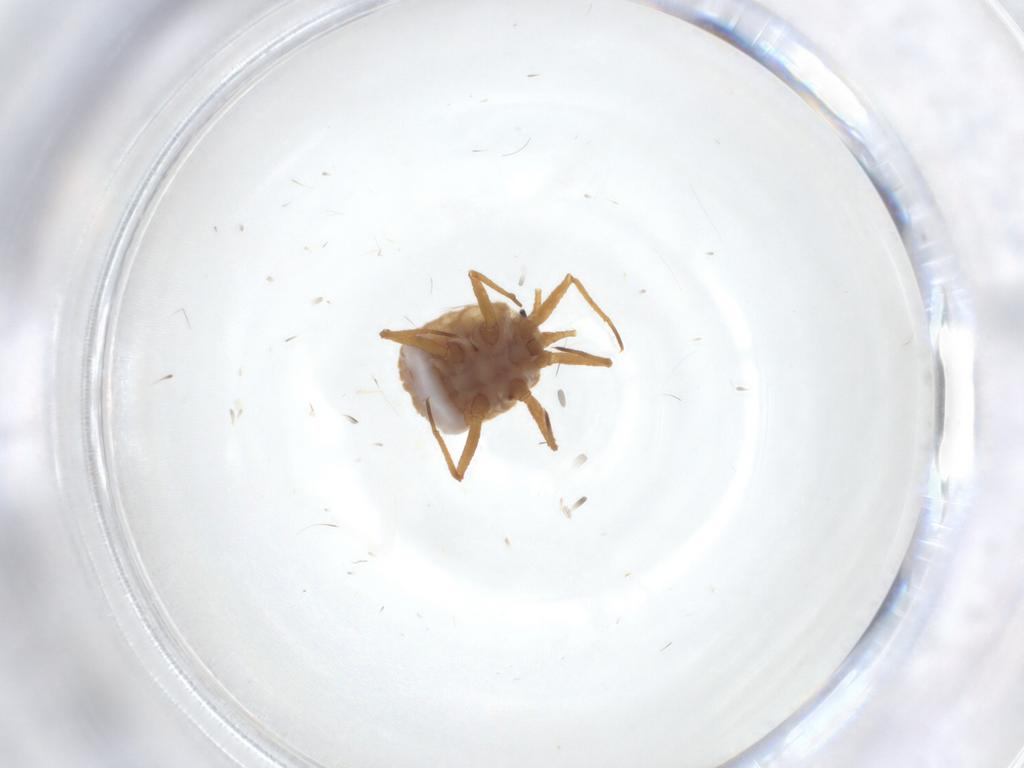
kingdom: Animalia
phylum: Arthropoda
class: Insecta
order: Hemiptera
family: Cicadellidae
